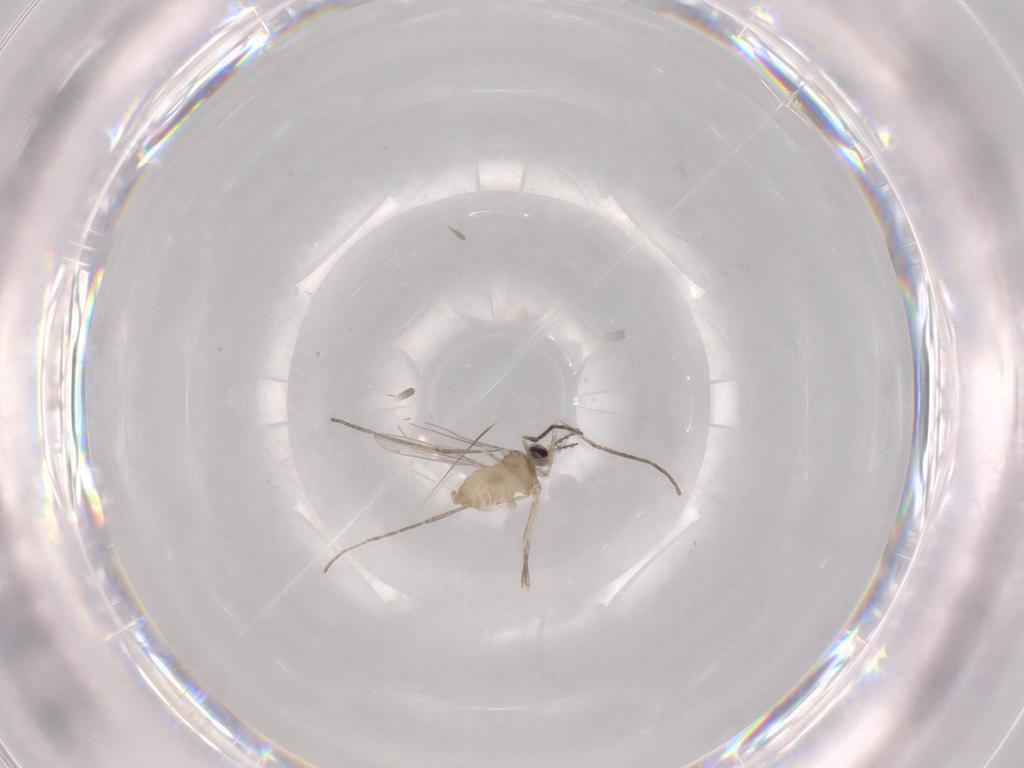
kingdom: Animalia
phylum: Arthropoda
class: Insecta
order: Diptera
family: Cecidomyiidae
